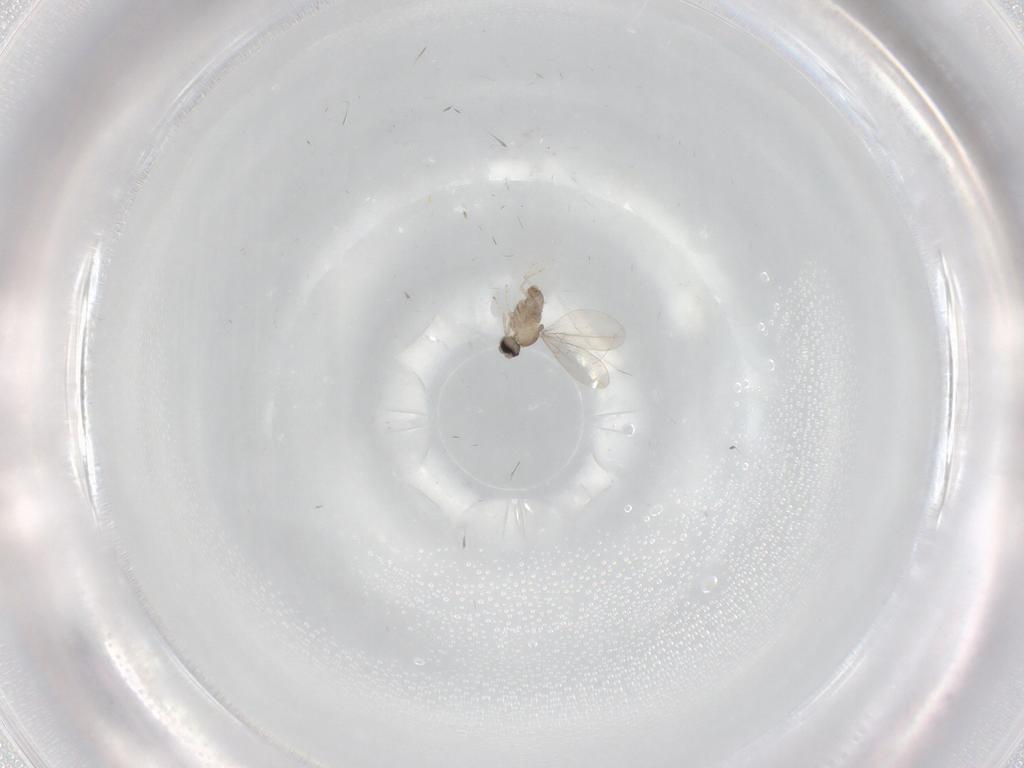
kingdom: Animalia
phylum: Arthropoda
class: Insecta
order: Diptera
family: Cecidomyiidae
